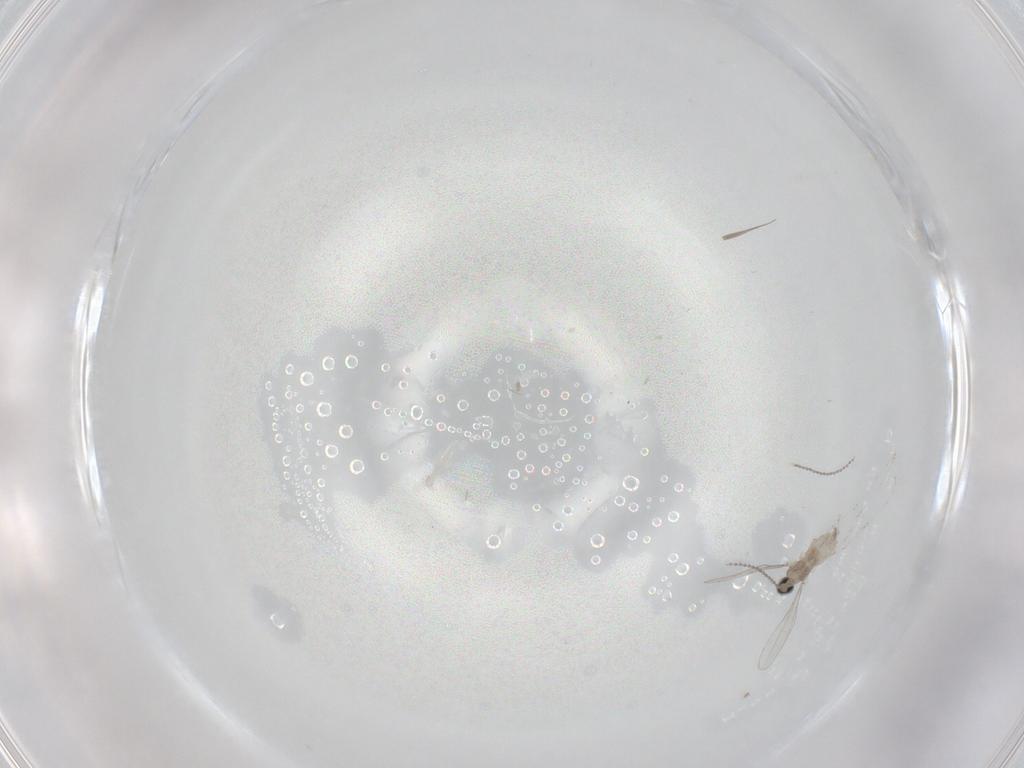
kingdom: Animalia
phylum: Arthropoda
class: Insecta
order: Diptera
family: Cecidomyiidae
